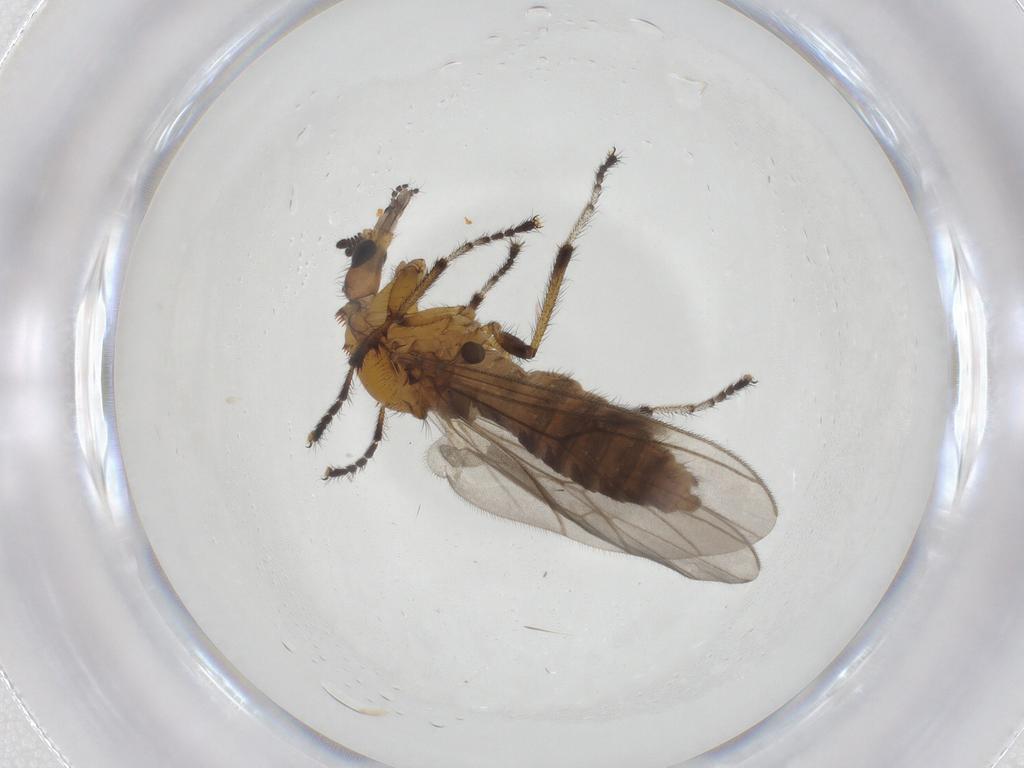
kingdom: Animalia
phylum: Arthropoda
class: Insecta
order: Diptera
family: Bibionidae
